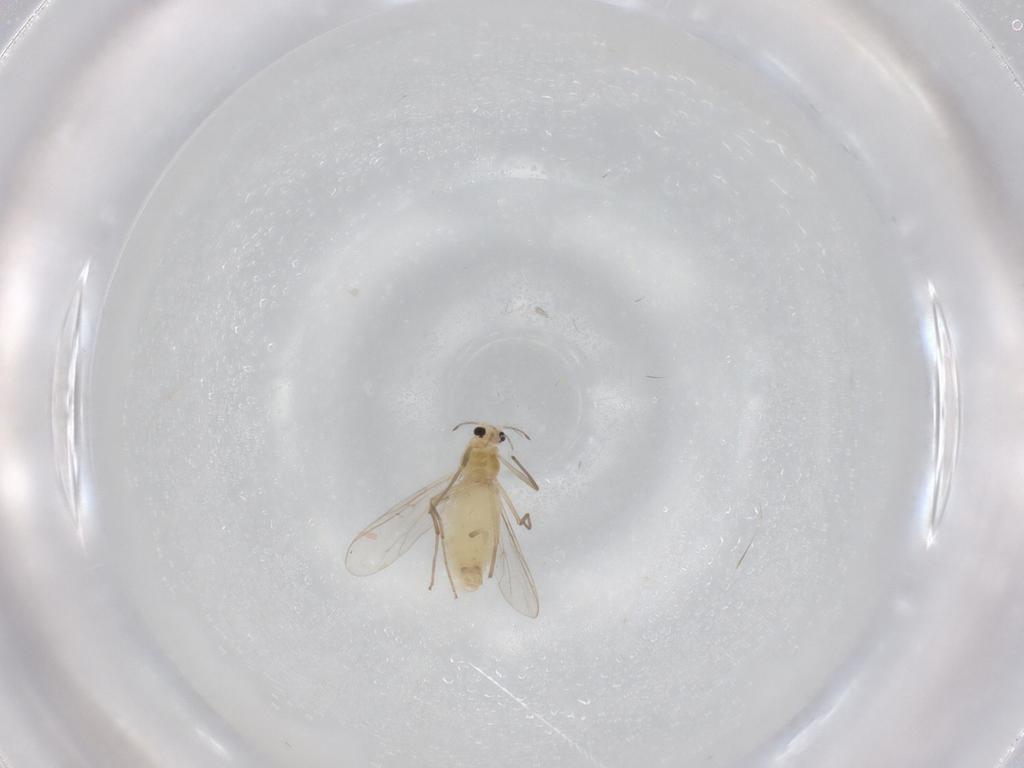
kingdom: Animalia
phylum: Arthropoda
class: Insecta
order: Diptera
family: Chironomidae
